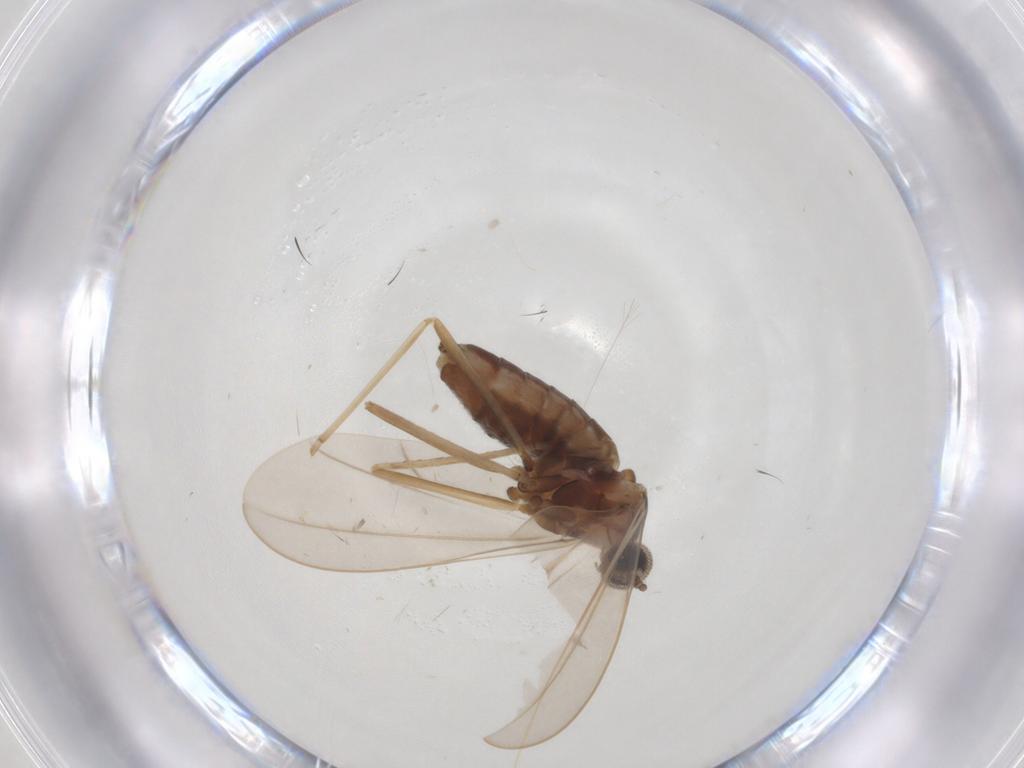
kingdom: Animalia
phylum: Arthropoda
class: Insecta
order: Diptera
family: Cecidomyiidae
